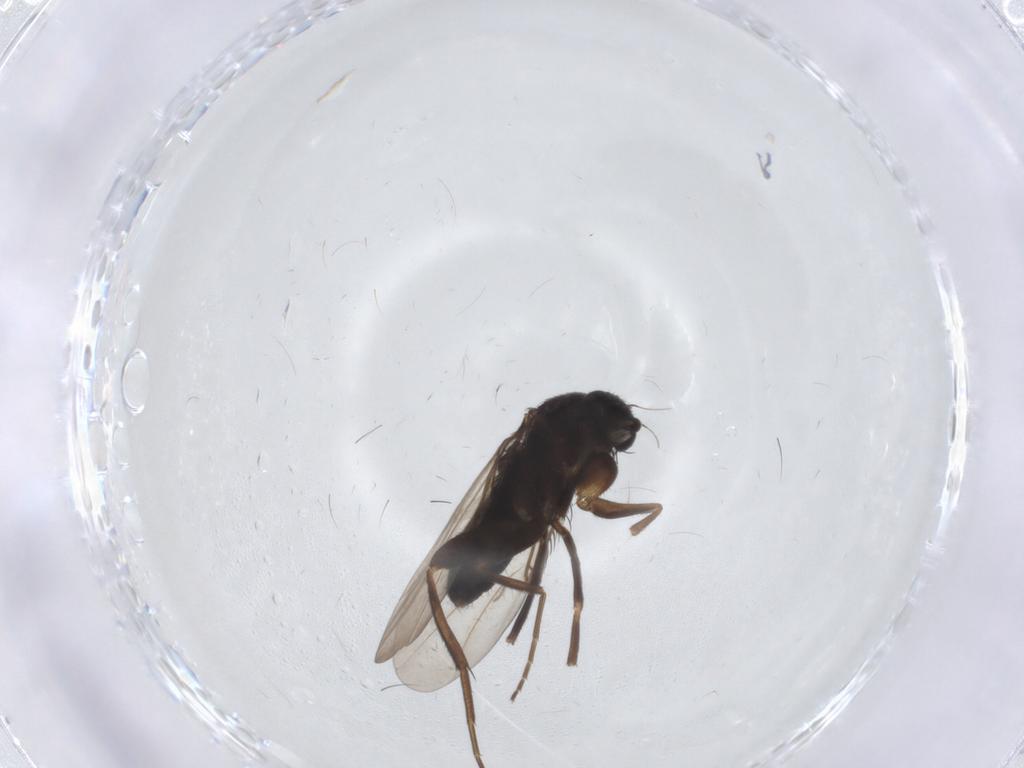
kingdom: Animalia
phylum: Arthropoda
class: Insecta
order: Diptera
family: Phoridae
